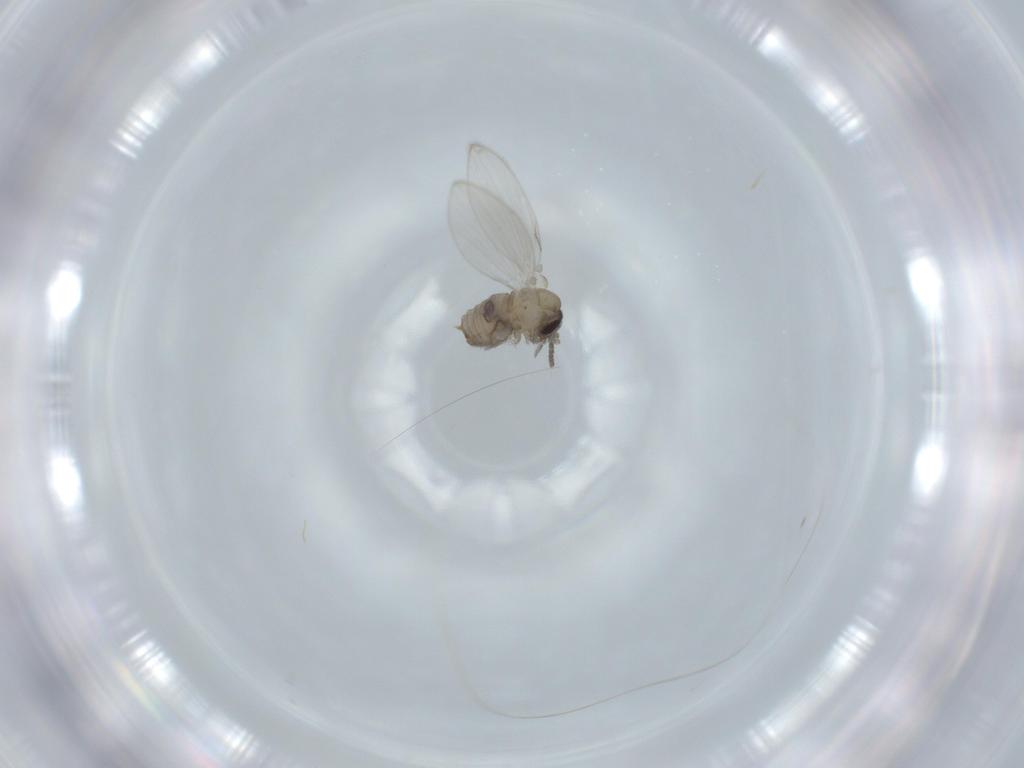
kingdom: Animalia
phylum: Arthropoda
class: Insecta
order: Diptera
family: Psychodidae
